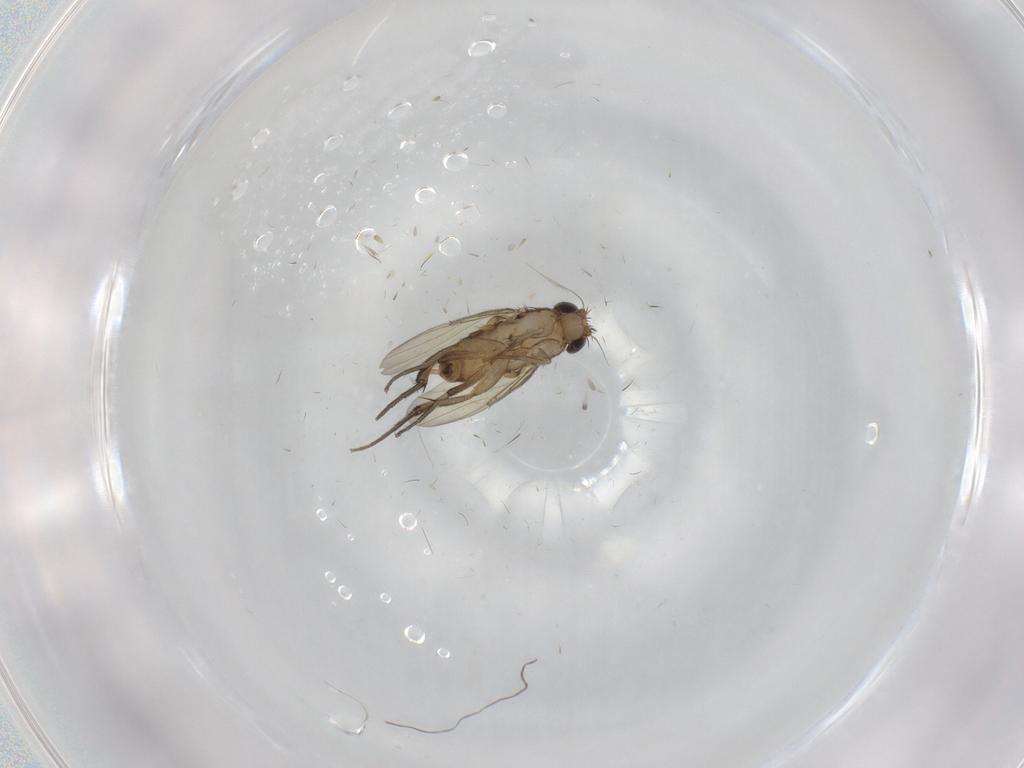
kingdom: Animalia
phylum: Arthropoda
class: Insecta
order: Diptera
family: Phoridae
